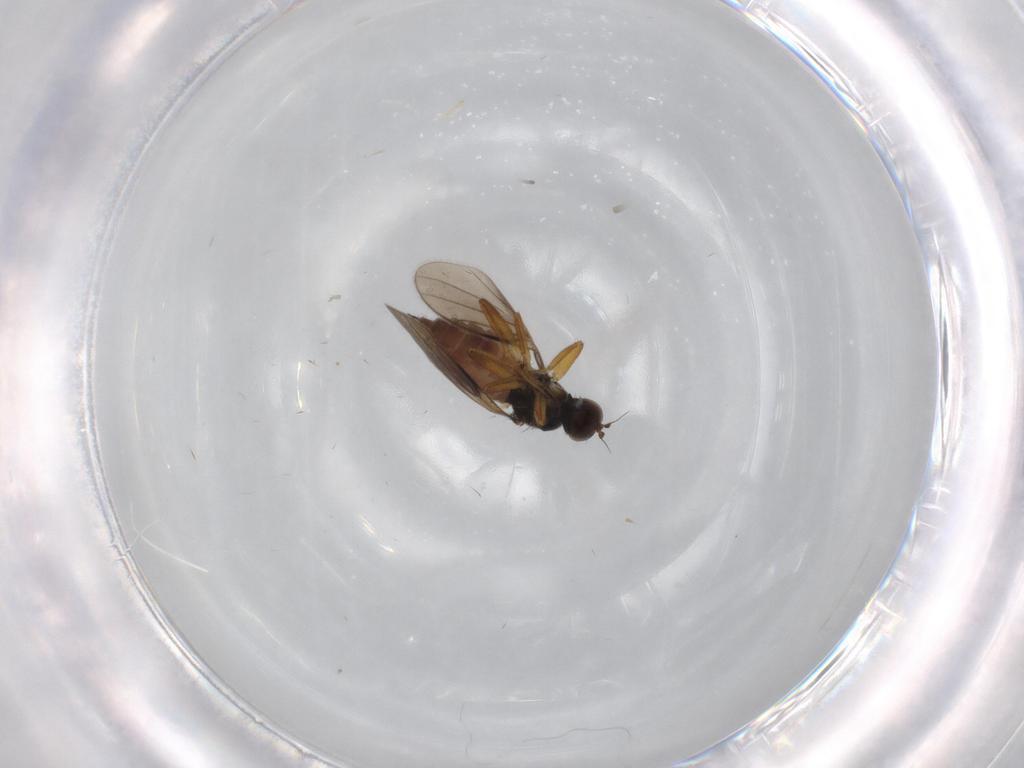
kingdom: Animalia
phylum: Arthropoda
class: Insecta
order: Diptera
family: Hybotidae
